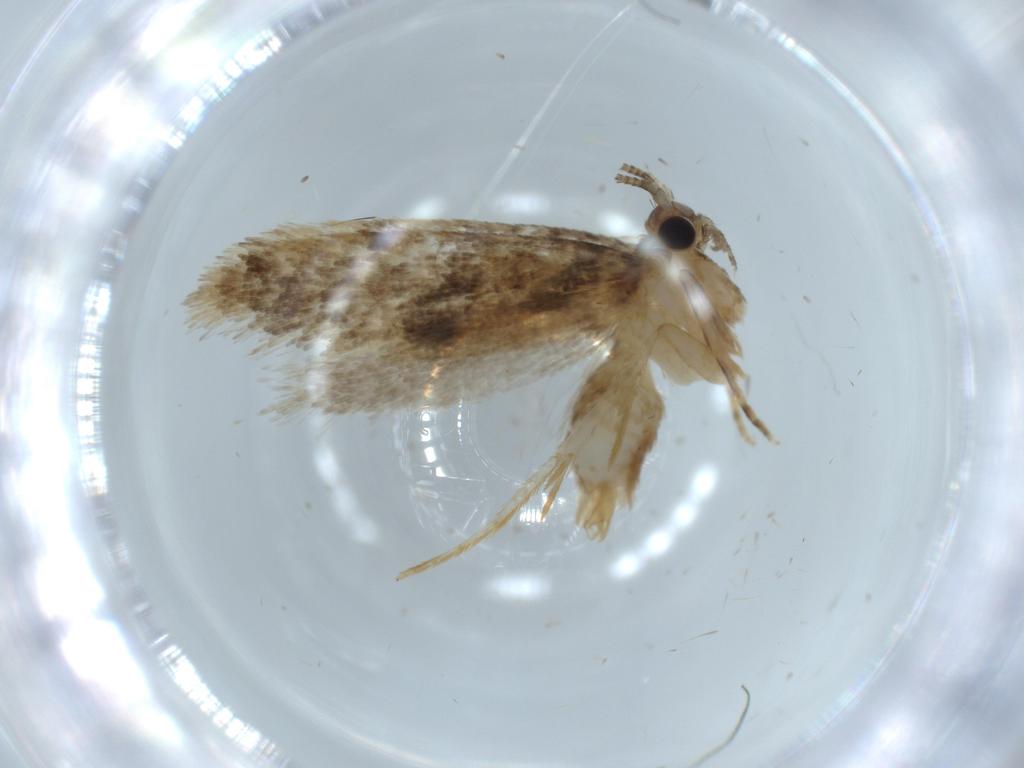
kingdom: Animalia
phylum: Arthropoda
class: Insecta
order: Lepidoptera
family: Tineidae
